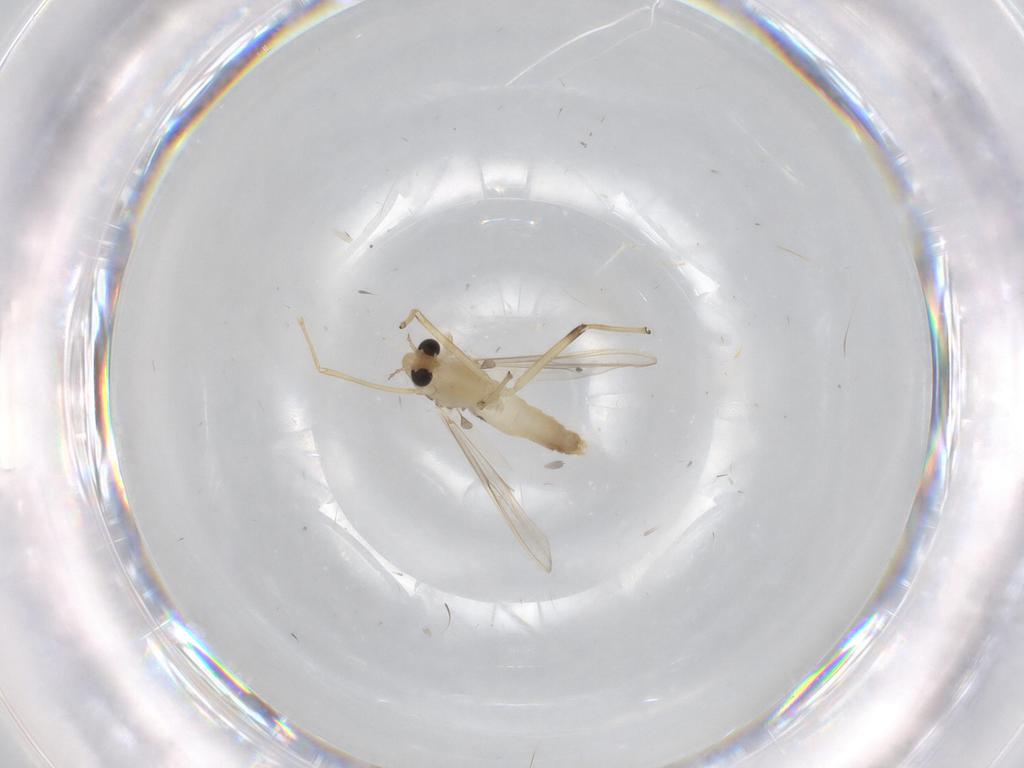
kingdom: Animalia
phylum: Arthropoda
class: Insecta
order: Diptera
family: Chironomidae
